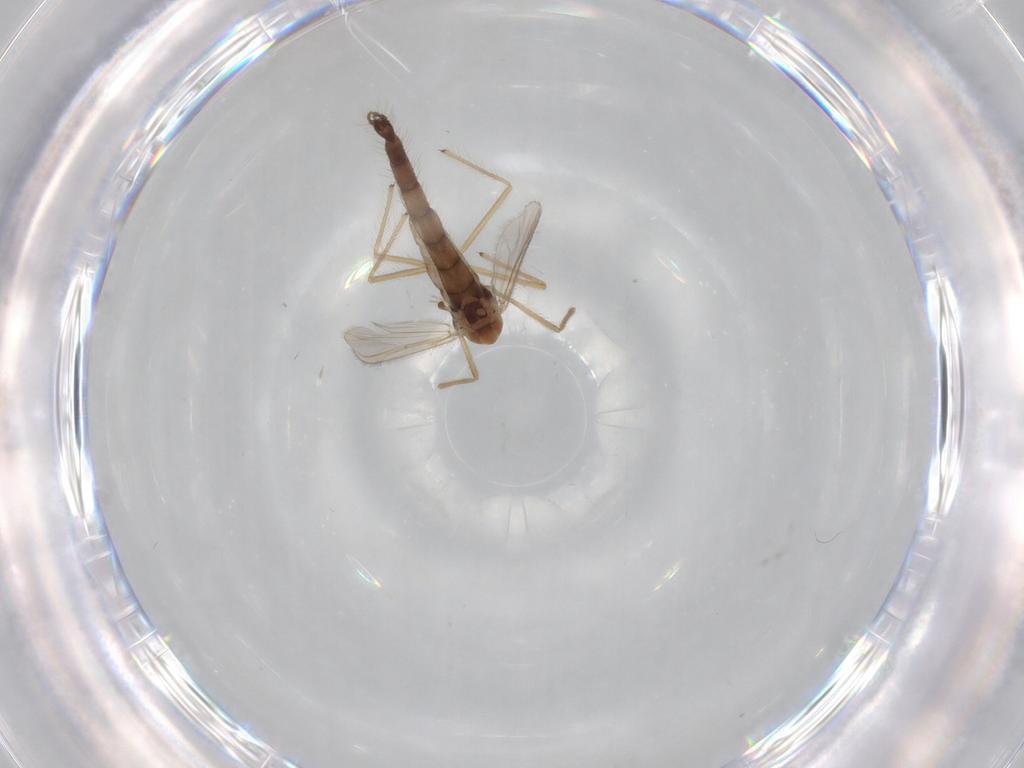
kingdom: Animalia
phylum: Arthropoda
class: Insecta
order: Diptera
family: Chironomidae
